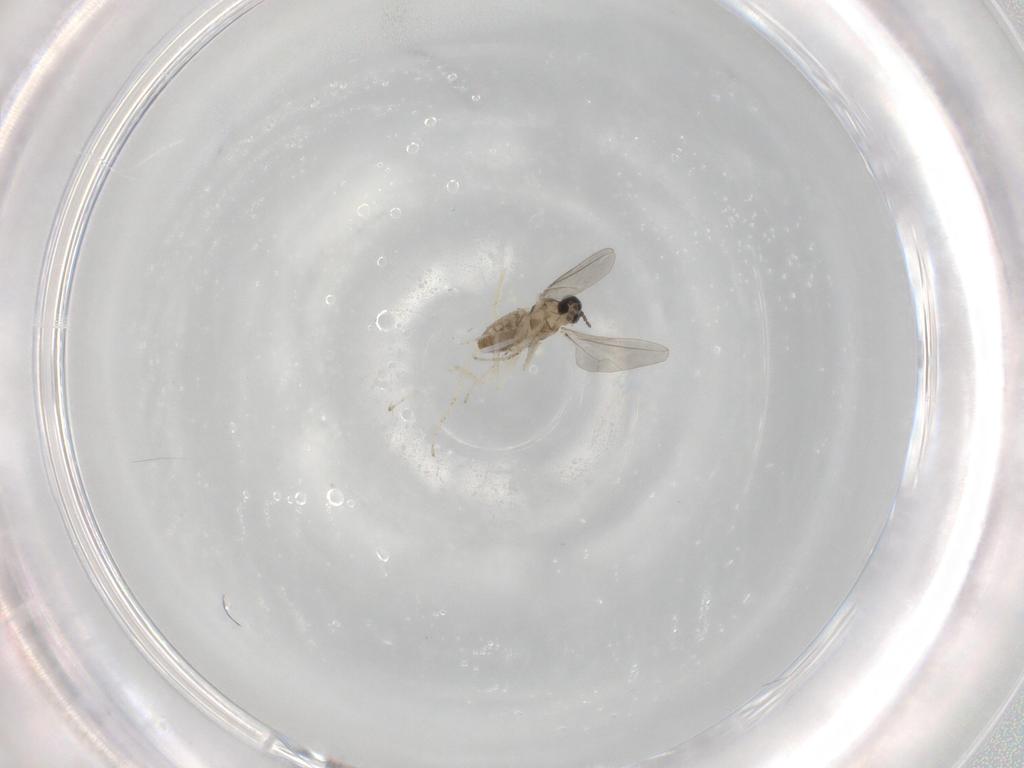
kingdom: Animalia
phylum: Arthropoda
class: Insecta
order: Diptera
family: Cecidomyiidae
